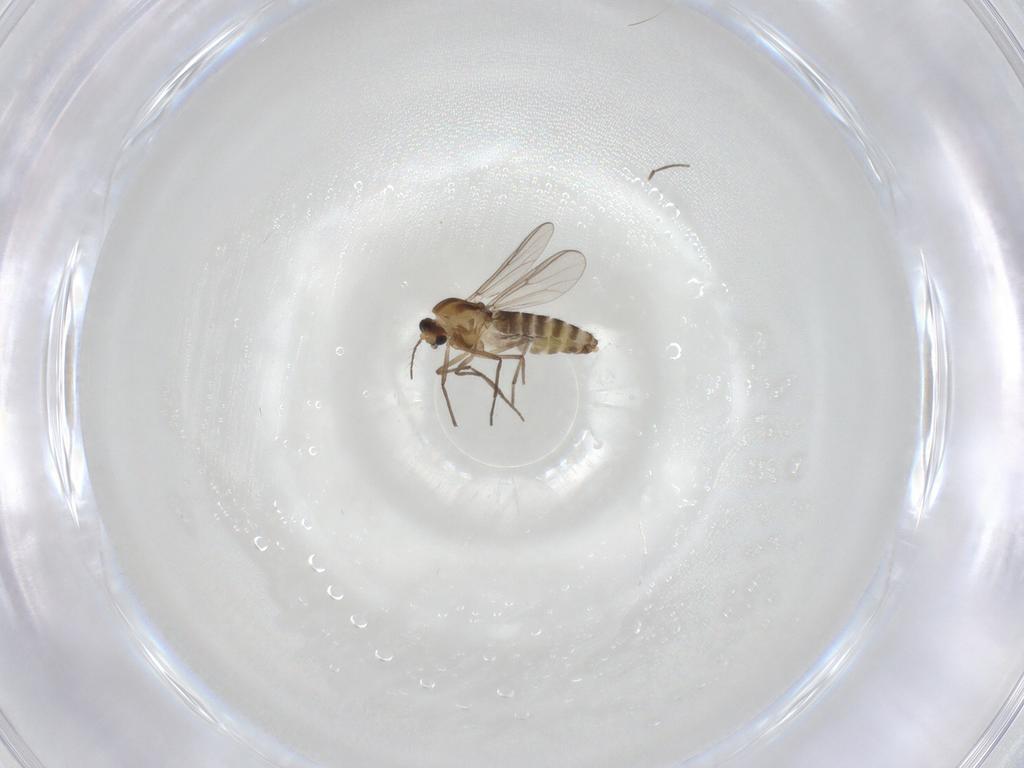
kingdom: Animalia
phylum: Arthropoda
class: Insecta
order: Diptera
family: Chironomidae
